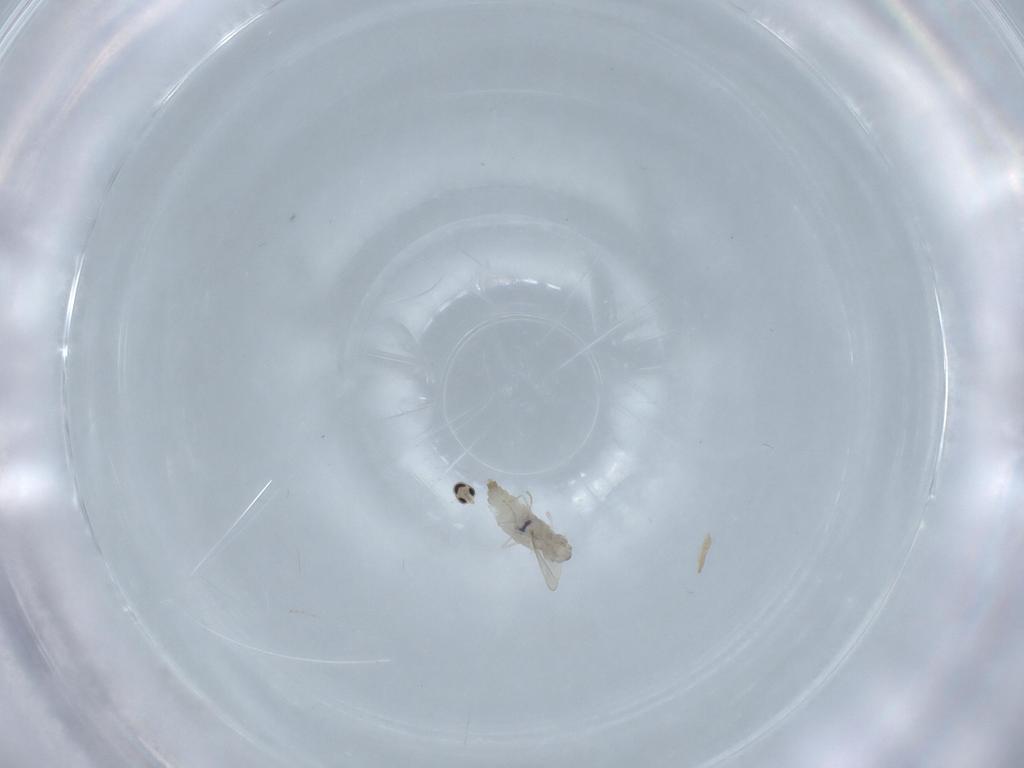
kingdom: Animalia
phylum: Arthropoda
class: Insecta
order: Diptera
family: Cecidomyiidae
